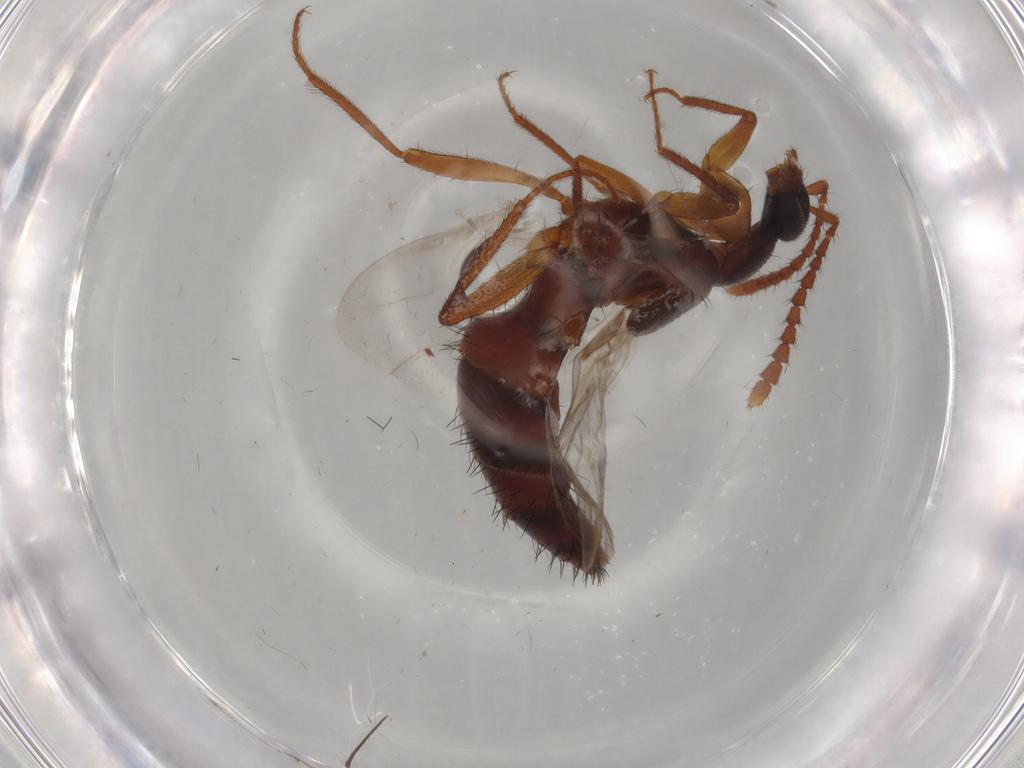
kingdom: Animalia
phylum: Arthropoda
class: Insecta
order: Coleoptera
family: Staphylinidae
